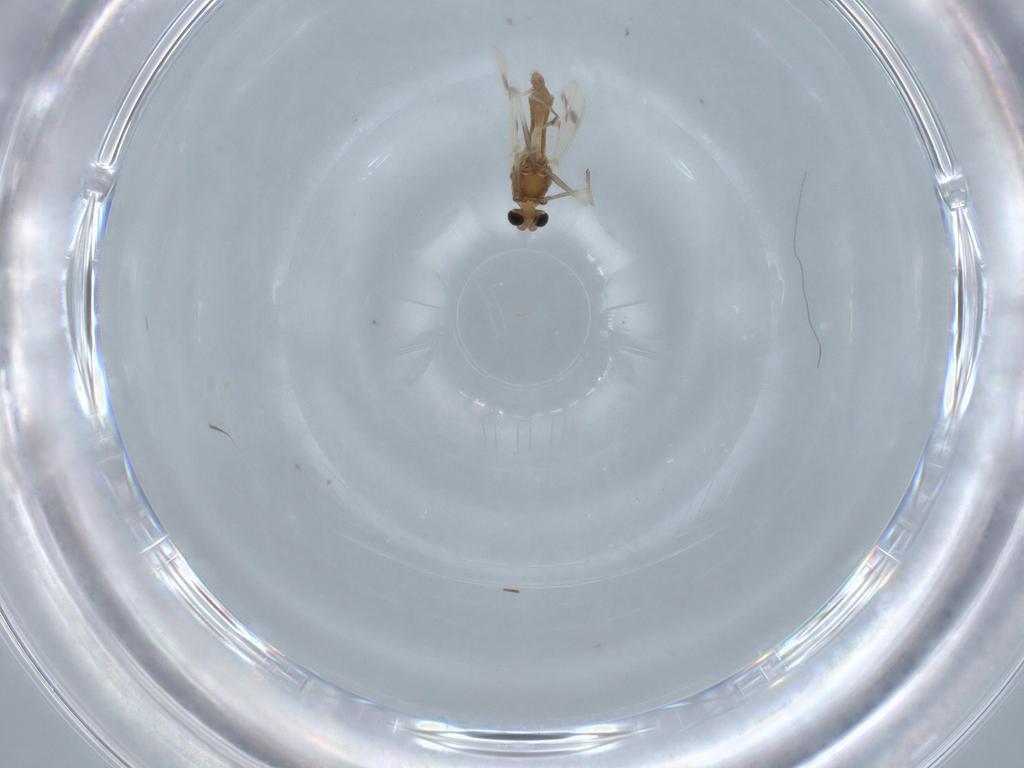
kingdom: Animalia
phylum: Arthropoda
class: Insecta
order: Diptera
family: Chironomidae
